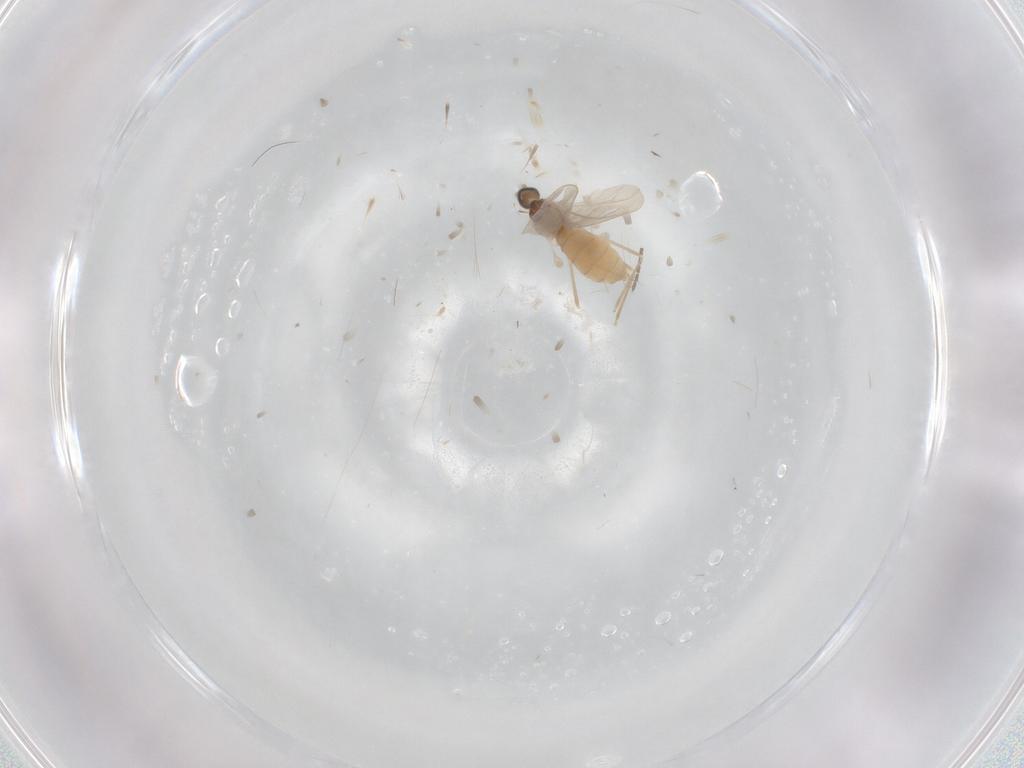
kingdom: Animalia
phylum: Arthropoda
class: Insecta
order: Diptera
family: Cecidomyiidae
